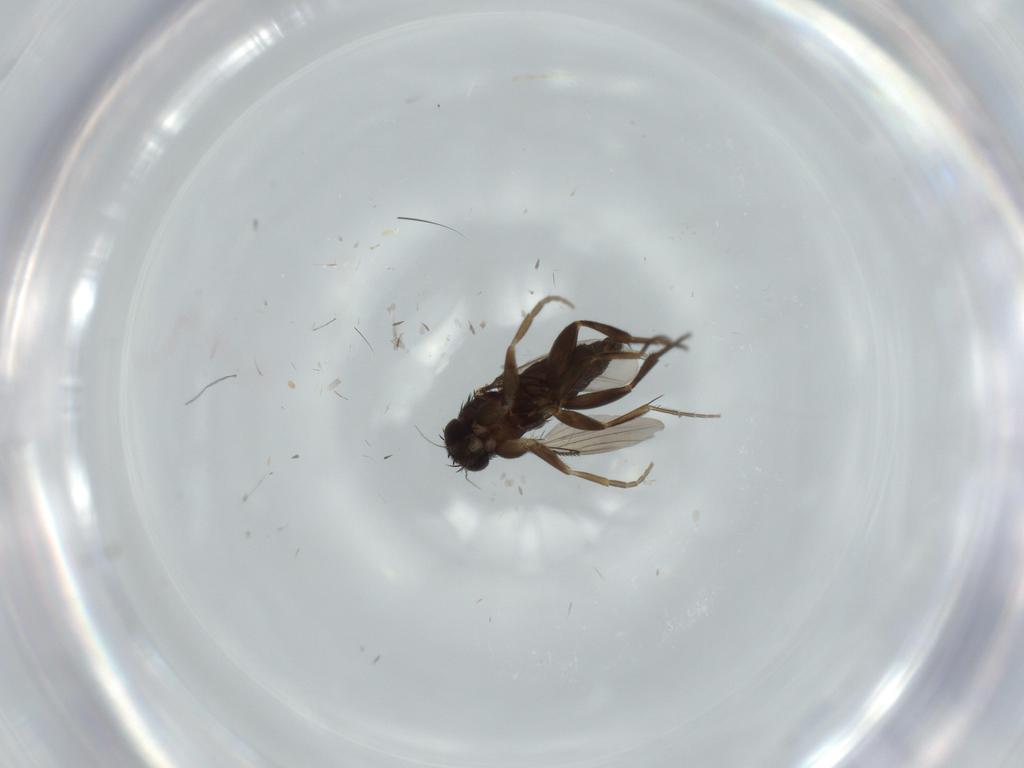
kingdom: Animalia
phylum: Arthropoda
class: Insecta
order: Diptera
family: Cecidomyiidae
